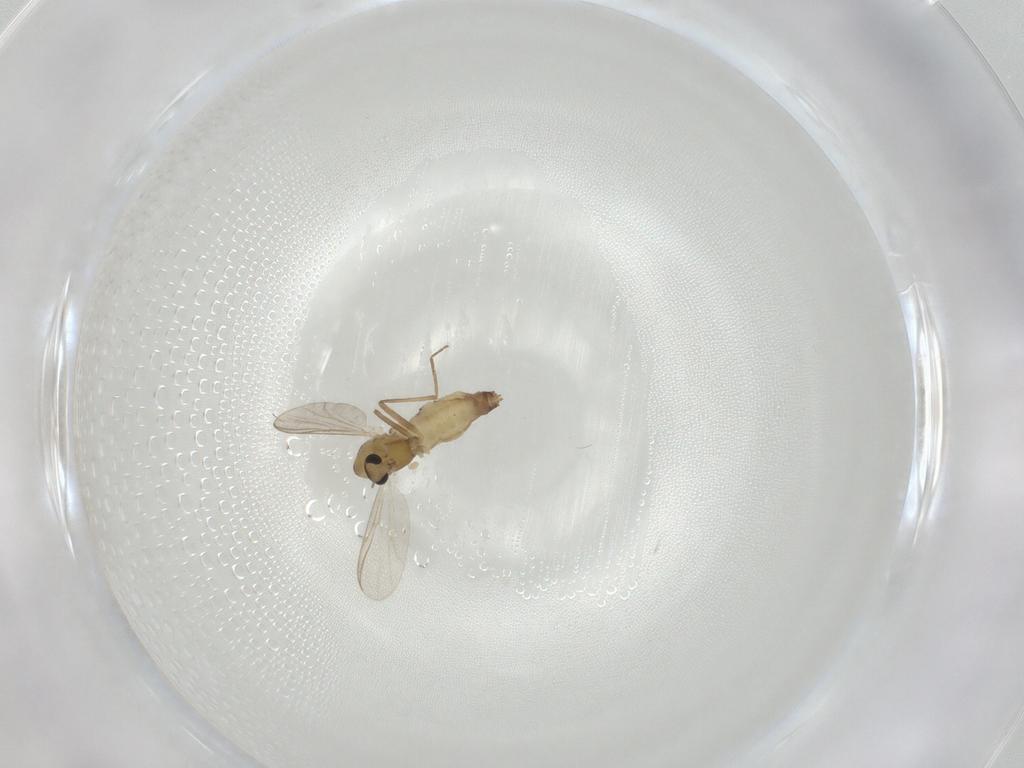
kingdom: Animalia
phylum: Arthropoda
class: Insecta
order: Diptera
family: Chironomidae
